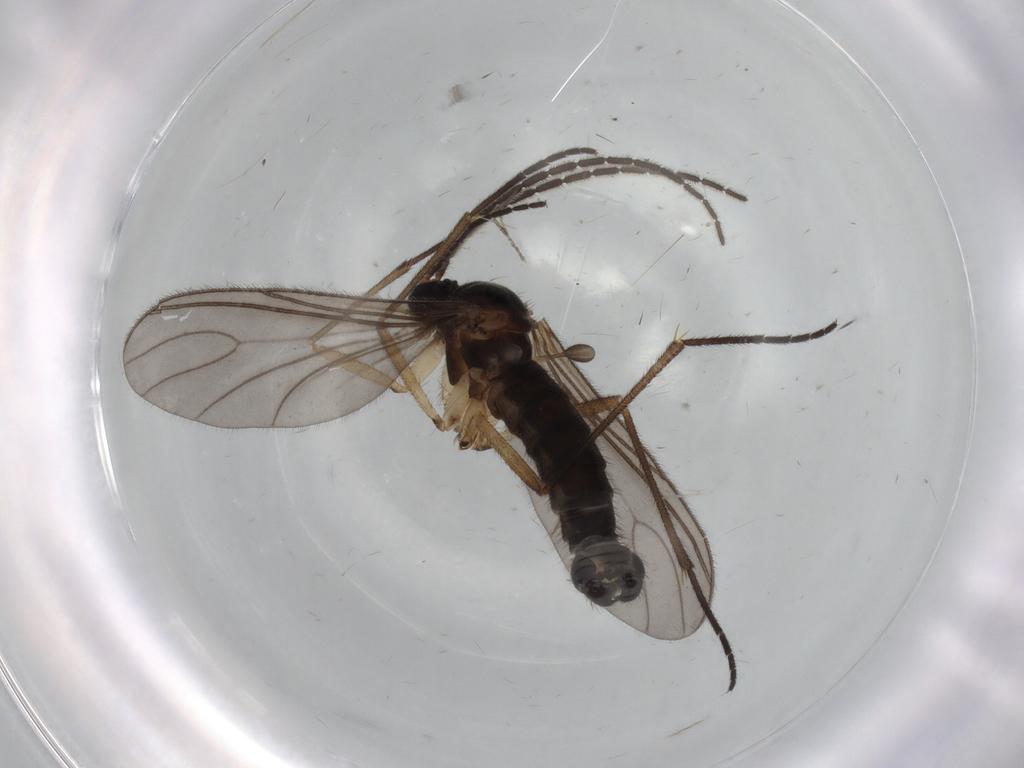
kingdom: Animalia
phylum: Arthropoda
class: Insecta
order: Diptera
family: Sciaridae
